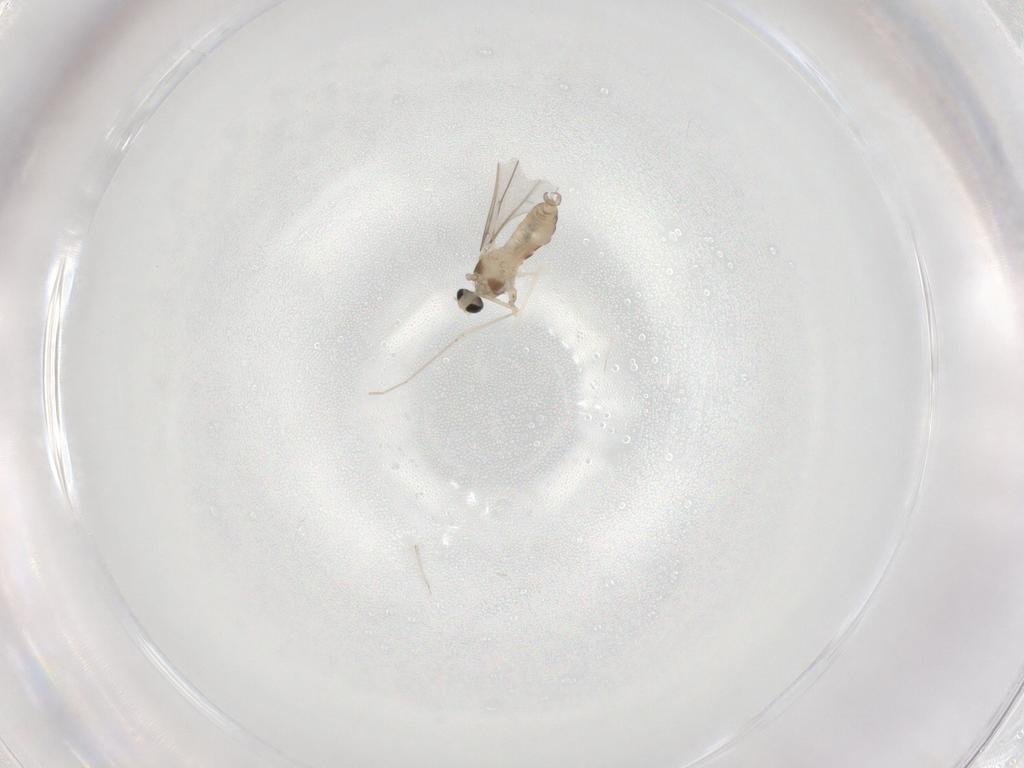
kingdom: Animalia
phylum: Arthropoda
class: Insecta
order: Diptera
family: Cecidomyiidae
